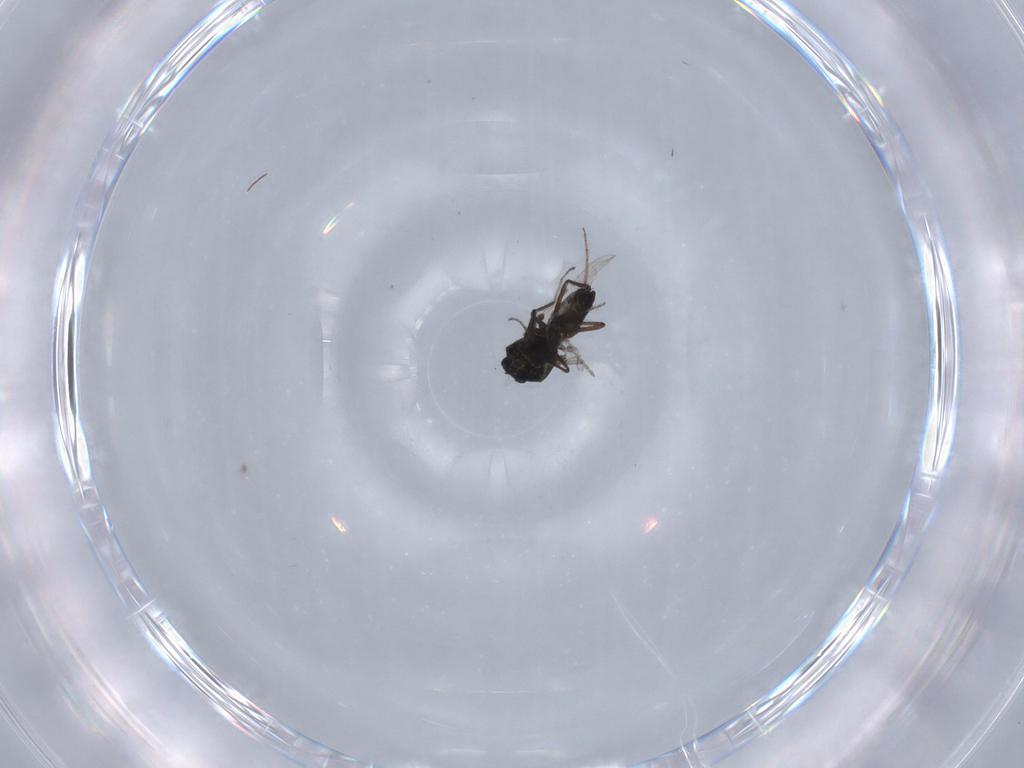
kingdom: Animalia
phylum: Arthropoda
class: Insecta
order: Diptera
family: Ceratopogonidae
